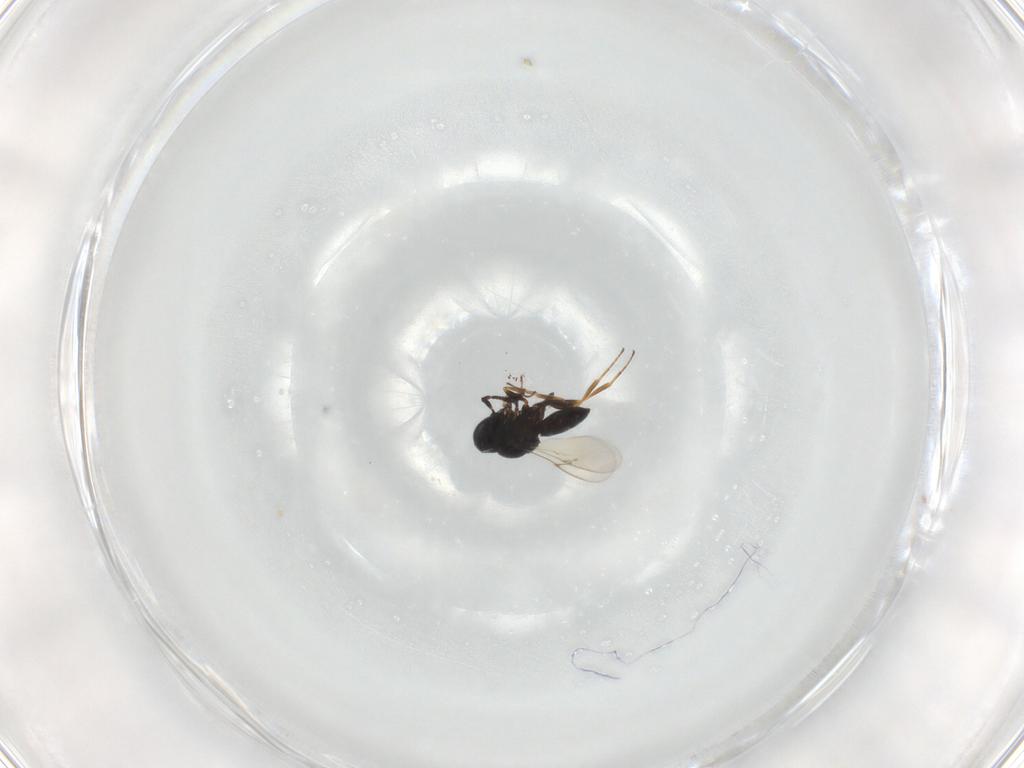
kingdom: Animalia
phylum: Arthropoda
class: Insecta
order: Hymenoptera
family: Scelionidae
